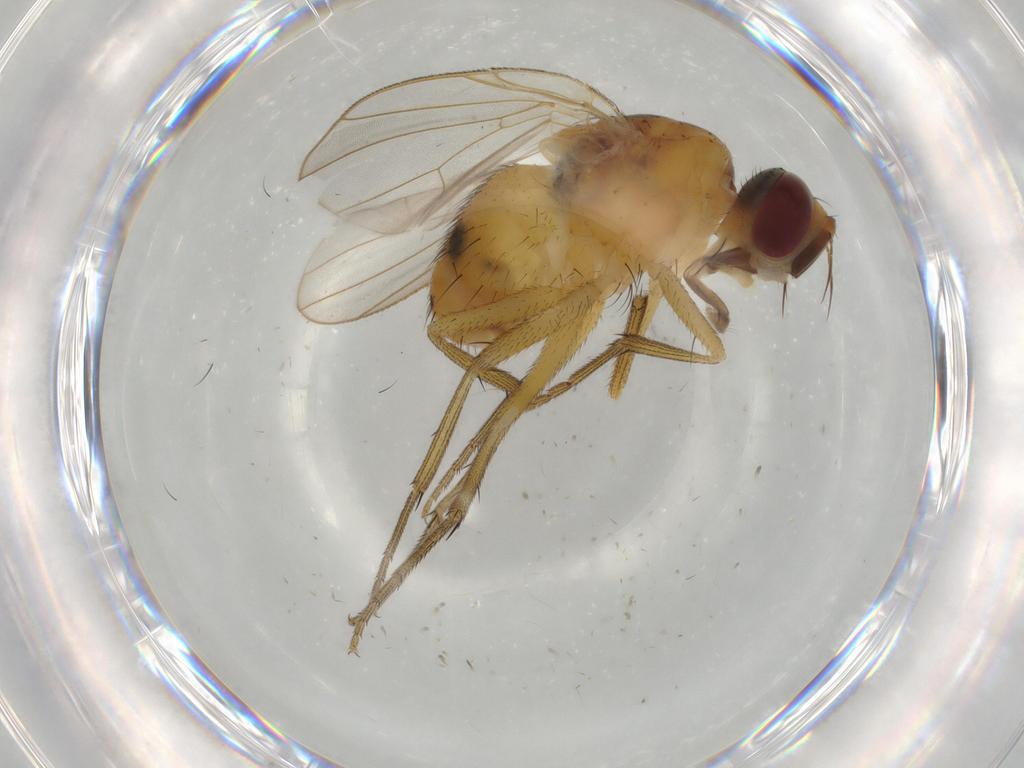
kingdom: Animalia
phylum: Arthropoda
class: Insecta
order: Diptera
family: Muscidae
